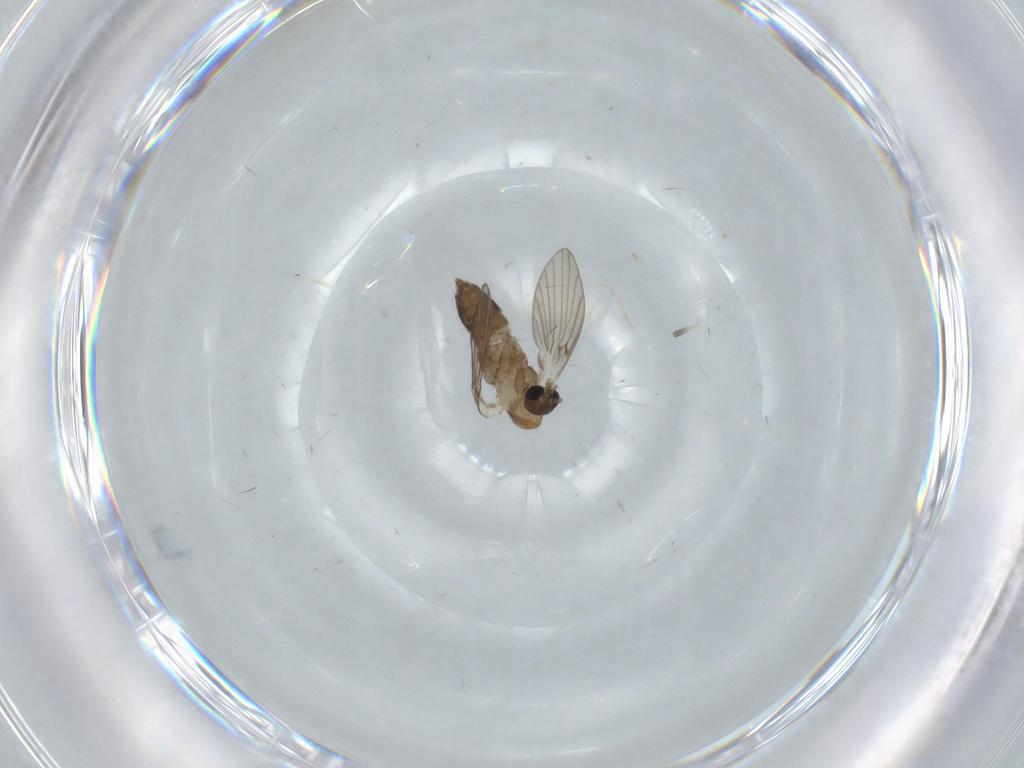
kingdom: Animalia
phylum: Arthropoda
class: Insecta
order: Diptera
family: Psychodidae
